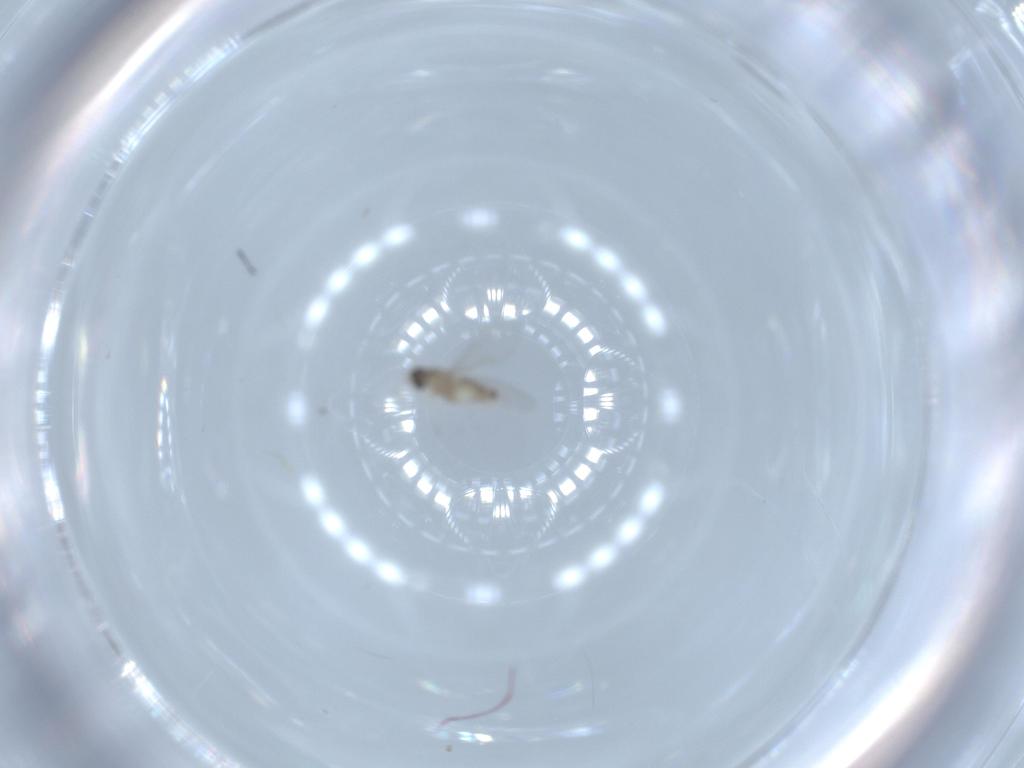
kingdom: Animalia
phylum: Arthropoda
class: Insecta
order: Diptera
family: Cecidomyiidae
